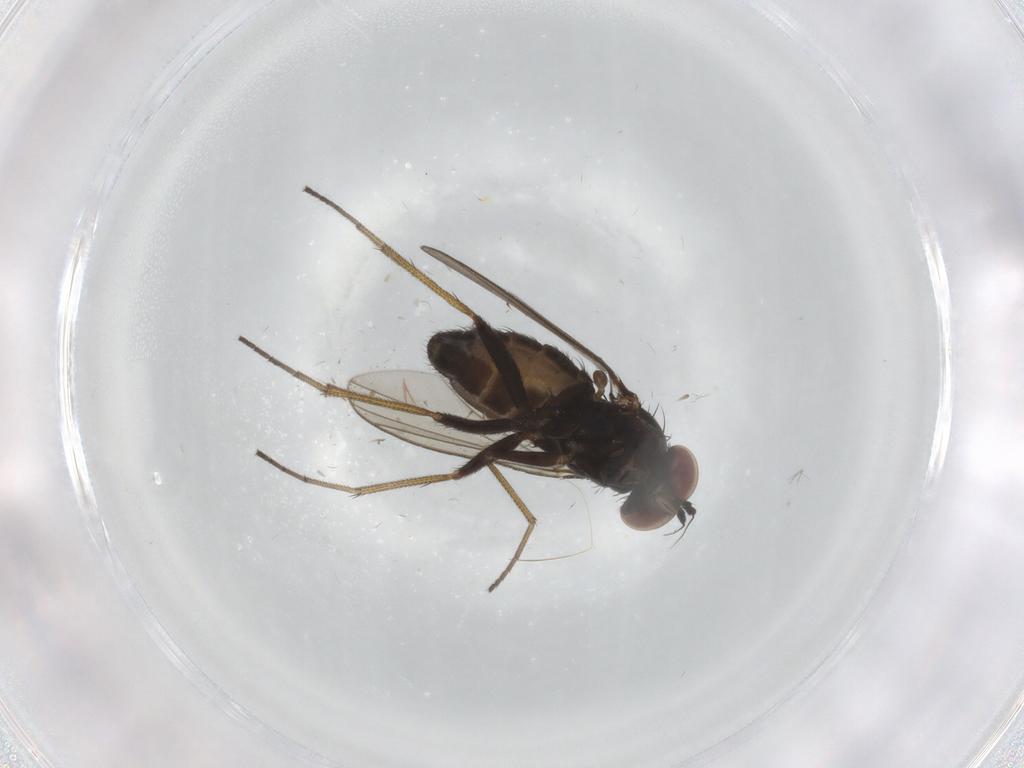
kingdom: Animalia
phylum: Arthropoda
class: Insecta
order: Diptera
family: Dolichopodidae
